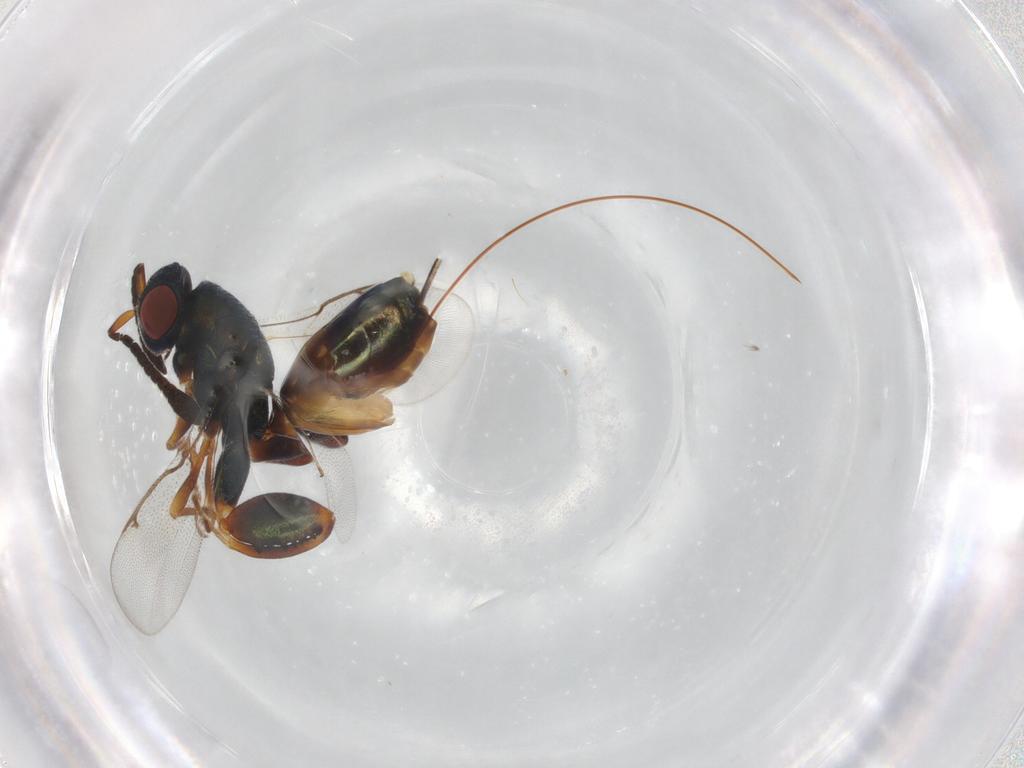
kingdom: Animalia
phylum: Arthropoda
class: Insecta
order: Hymenoptera
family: Torymidae
